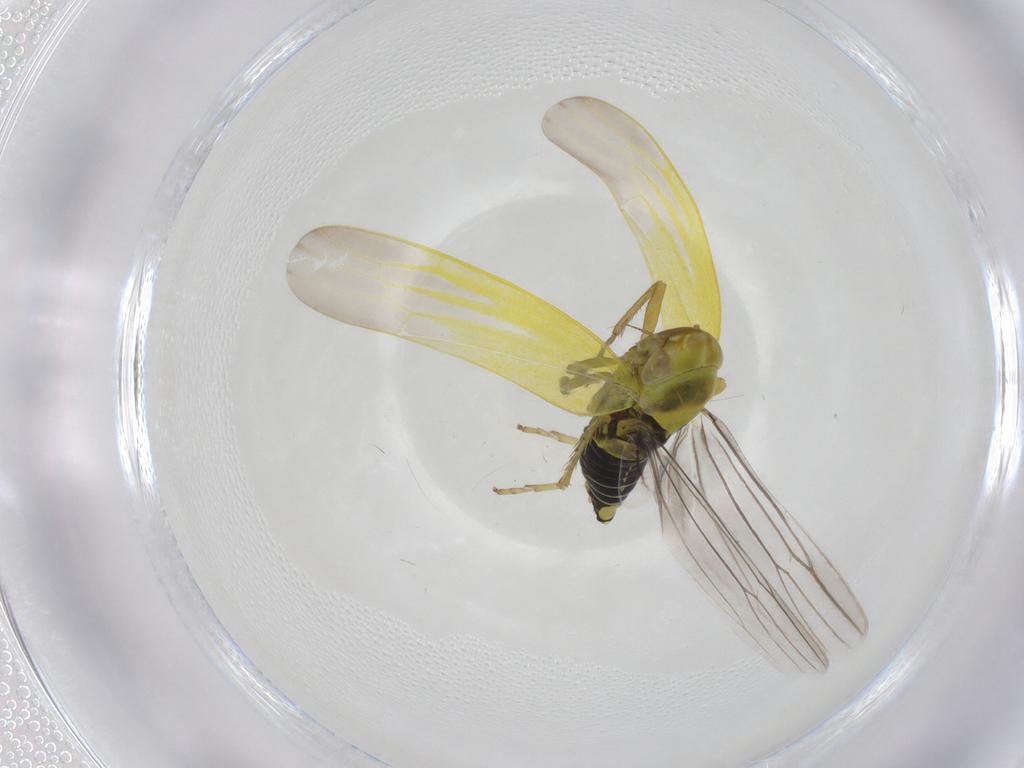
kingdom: Animalia
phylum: Arthropoda
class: Insecta
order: Hemiptera
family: Cicadellidae
